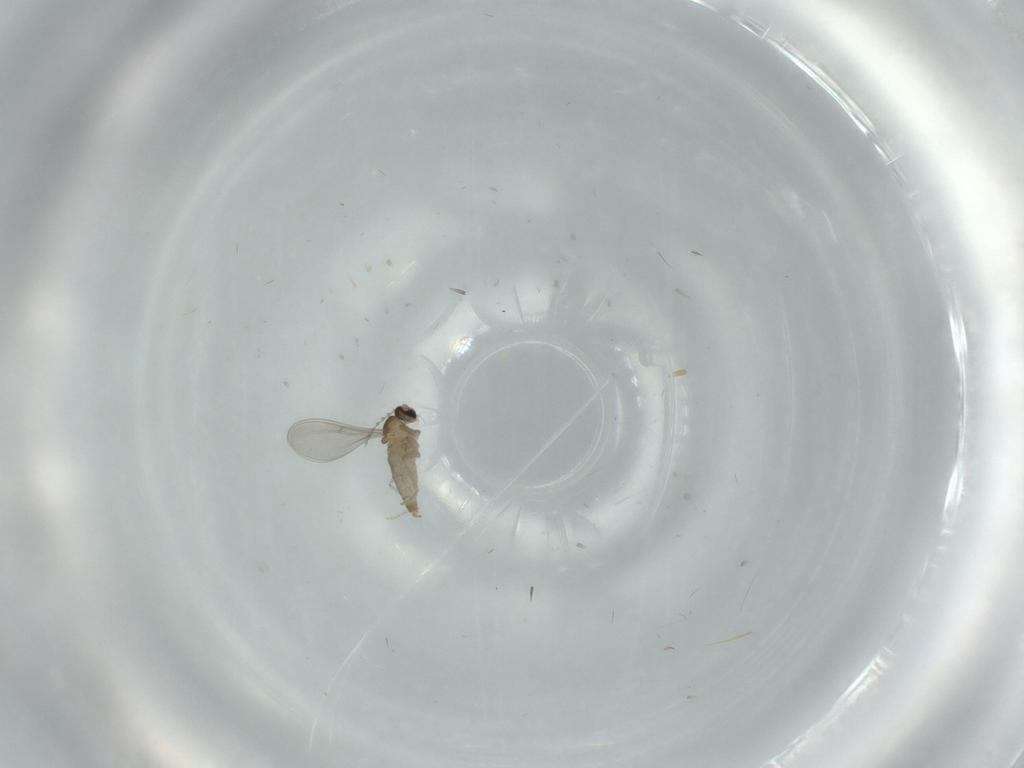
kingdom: Animalia
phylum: Arthropoda
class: Insecta
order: Diptera
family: Cecidomyiidae
